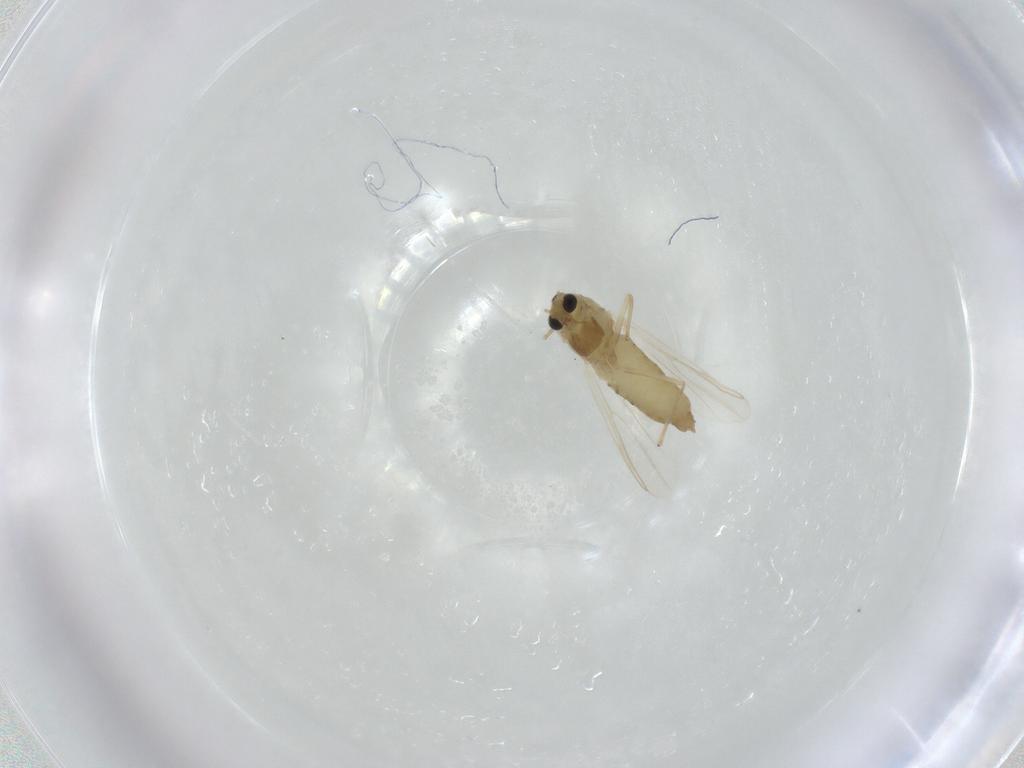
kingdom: Animalia
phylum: Arthropoda
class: Insecta
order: Diptera
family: Chironomidae
